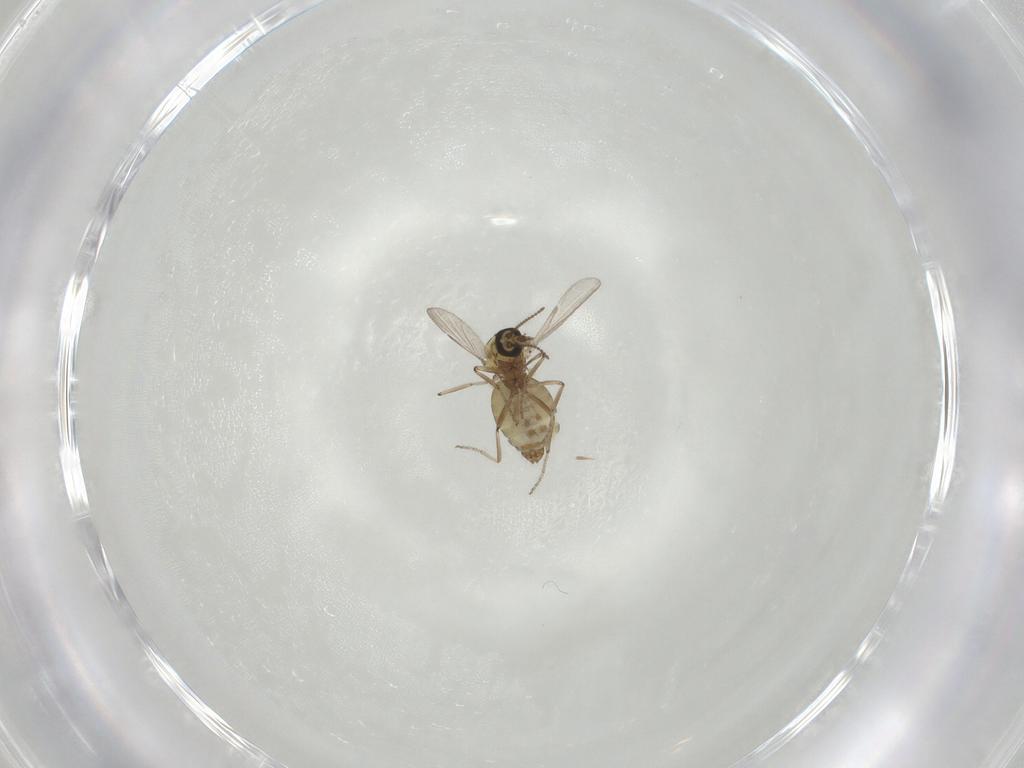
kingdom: Animalia
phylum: Arthropoda
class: Insecta
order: Diptera
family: Ceratopogonidae
